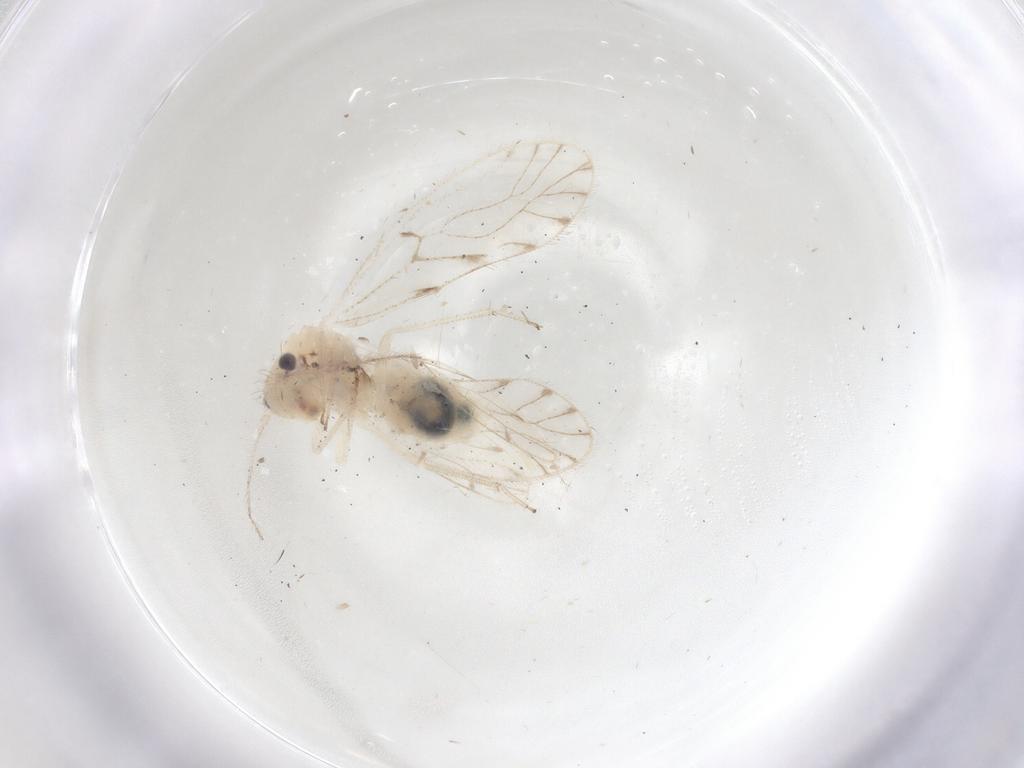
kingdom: Animalia
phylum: Arthropoda
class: Insecta
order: Psocodea
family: Trichopsocidae
